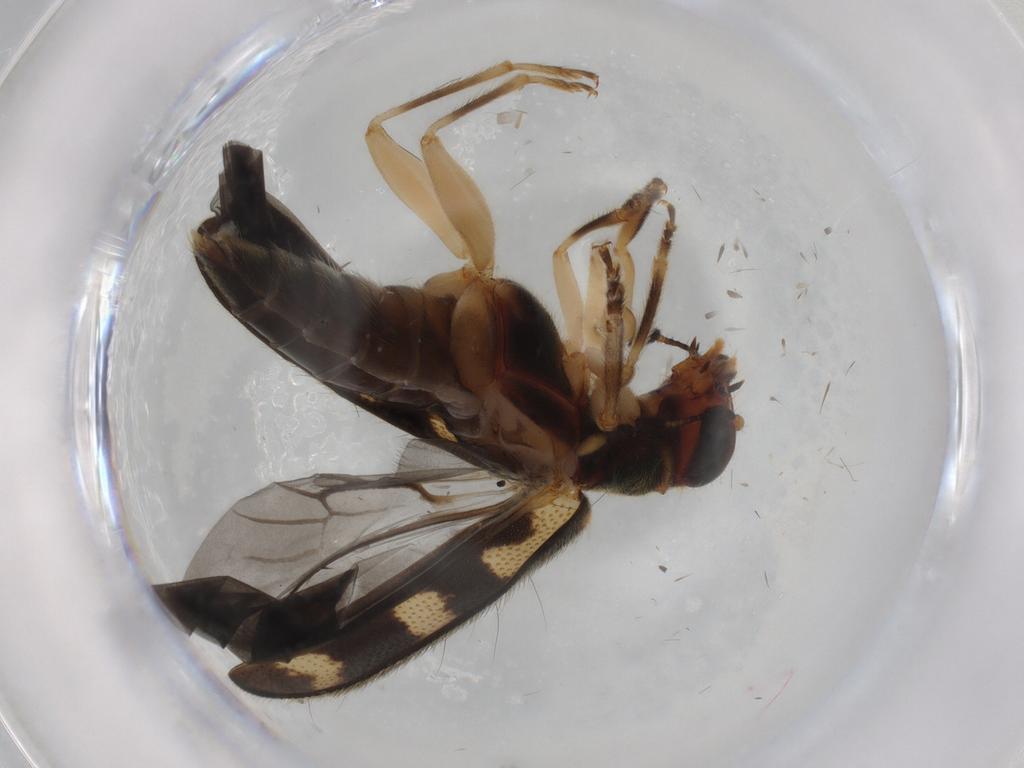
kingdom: Animalia
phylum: Arthropoda
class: Insecta
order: Coleoptera
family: Cleridae
